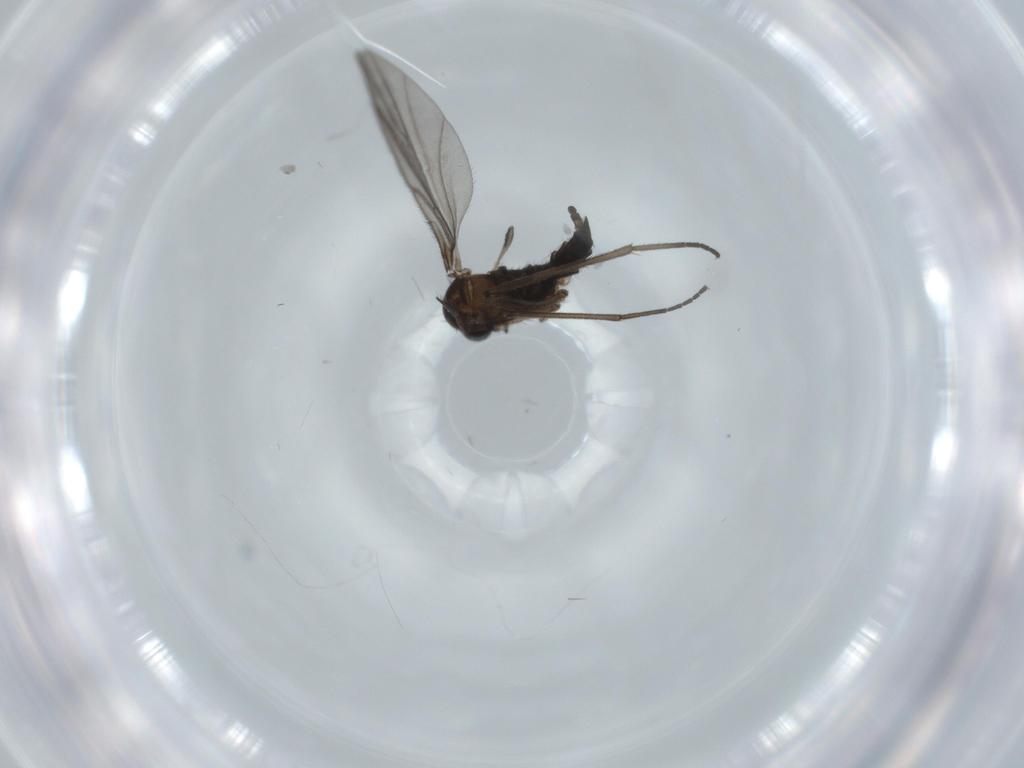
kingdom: Animalia
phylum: Arthropoda
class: Insecta
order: Diptera
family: Sciaridae
